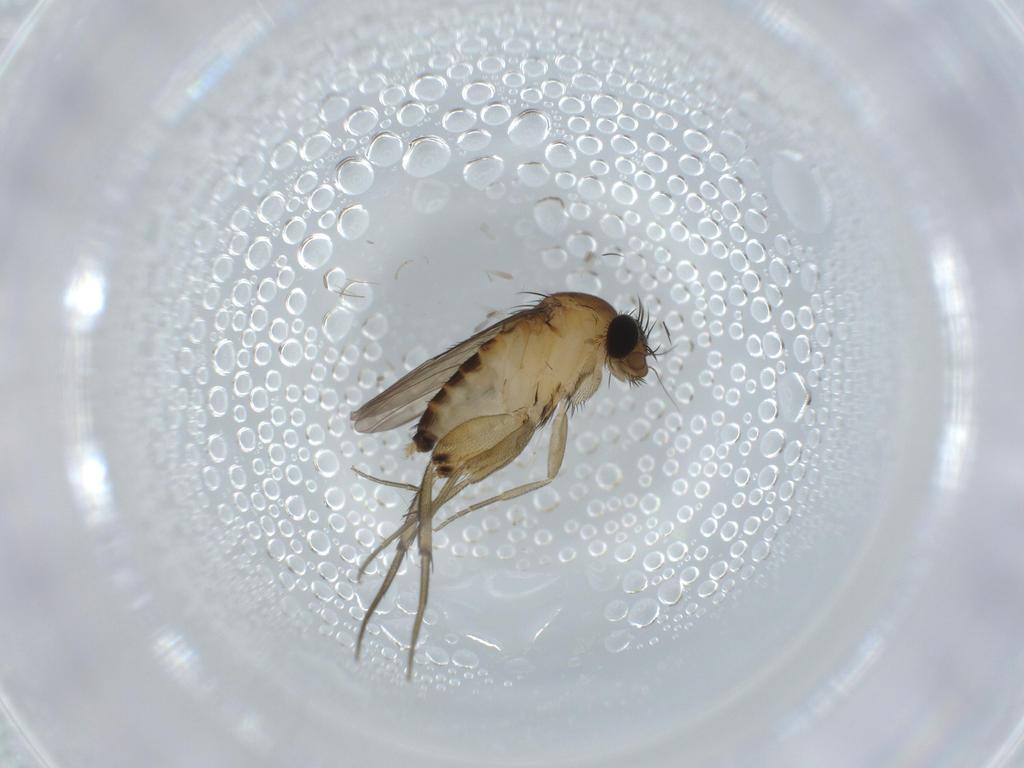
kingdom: Animalia
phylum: Arthropoda
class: Insecta
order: Diptera
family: Phoridae
